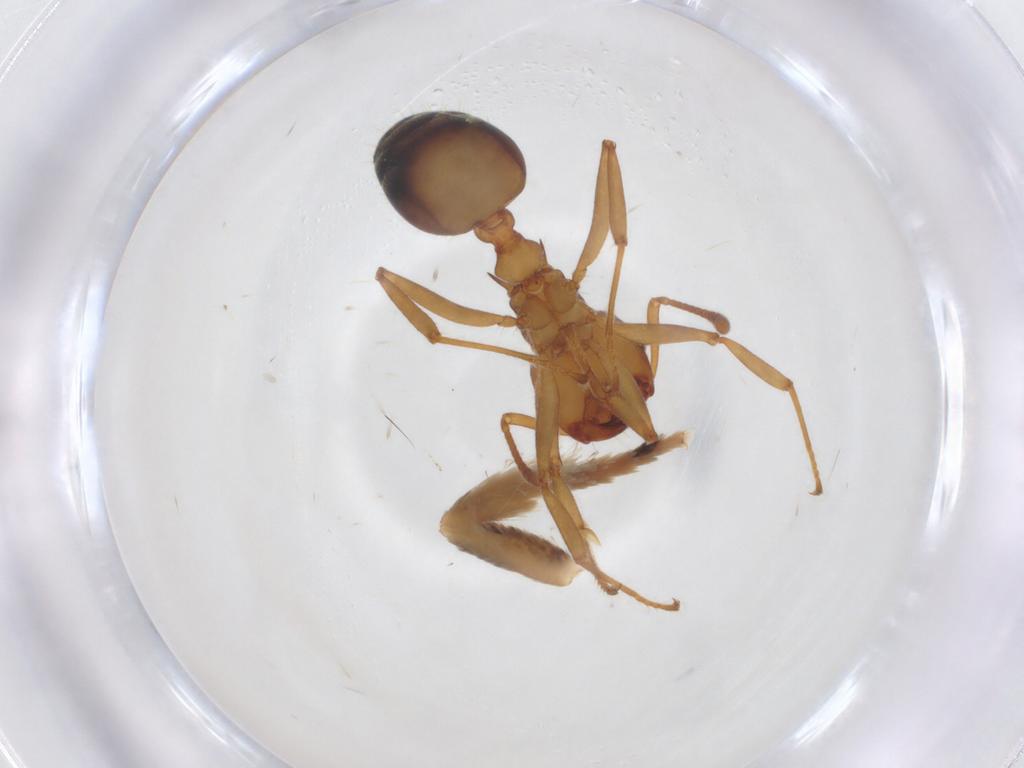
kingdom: Animalia
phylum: Arthropoda
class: Insecta
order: Hymenoptera
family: Formicidae
